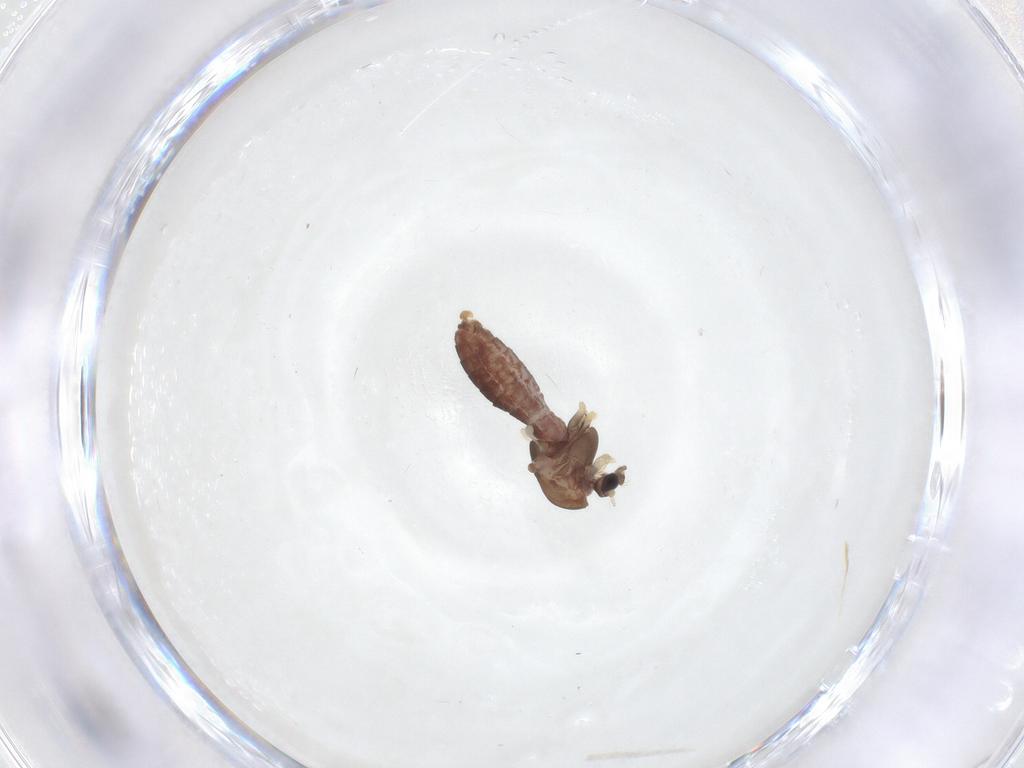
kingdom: Animalia
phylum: Arthropoda
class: Insecta
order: Diptera
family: Chironomidae
